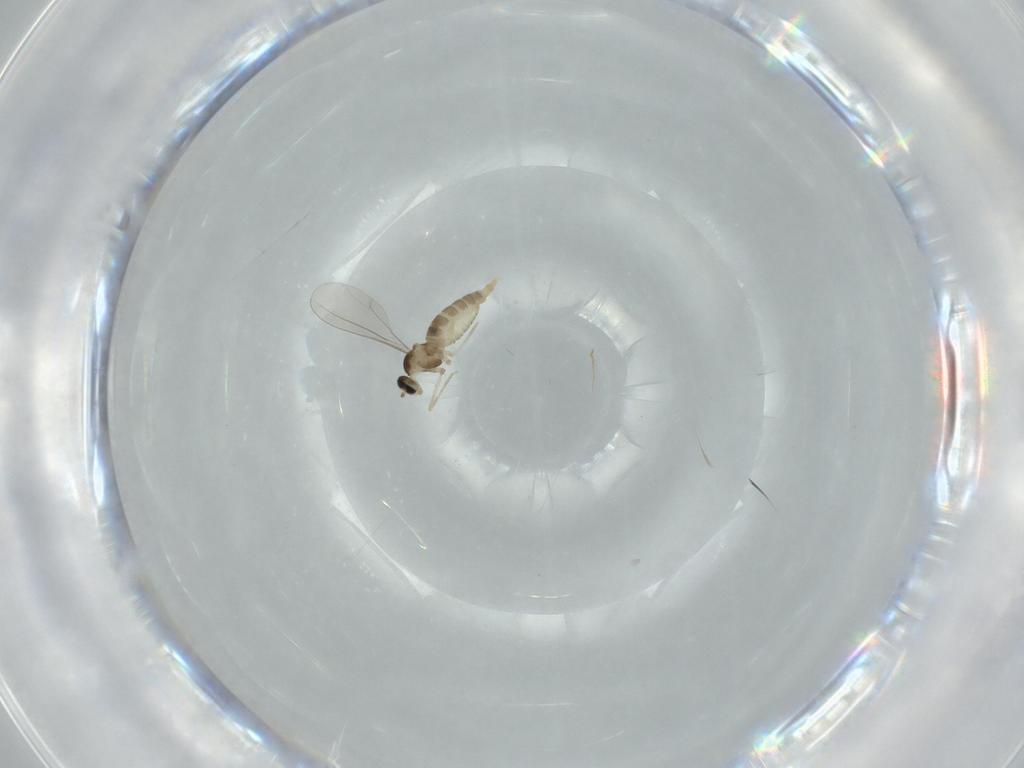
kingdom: Animalia
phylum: Arthropoda
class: Insecta
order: Diptera
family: Cecidomyiidae
